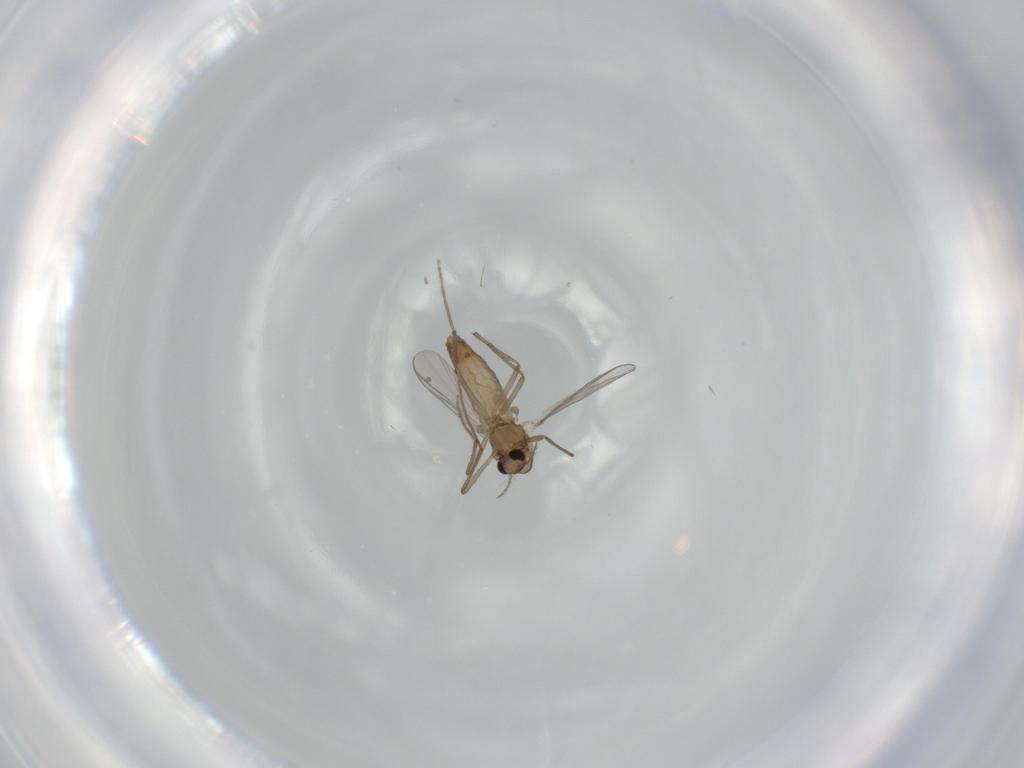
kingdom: Animalia
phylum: Arthropoda
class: Insecta
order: Diptera
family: Chironomidae
